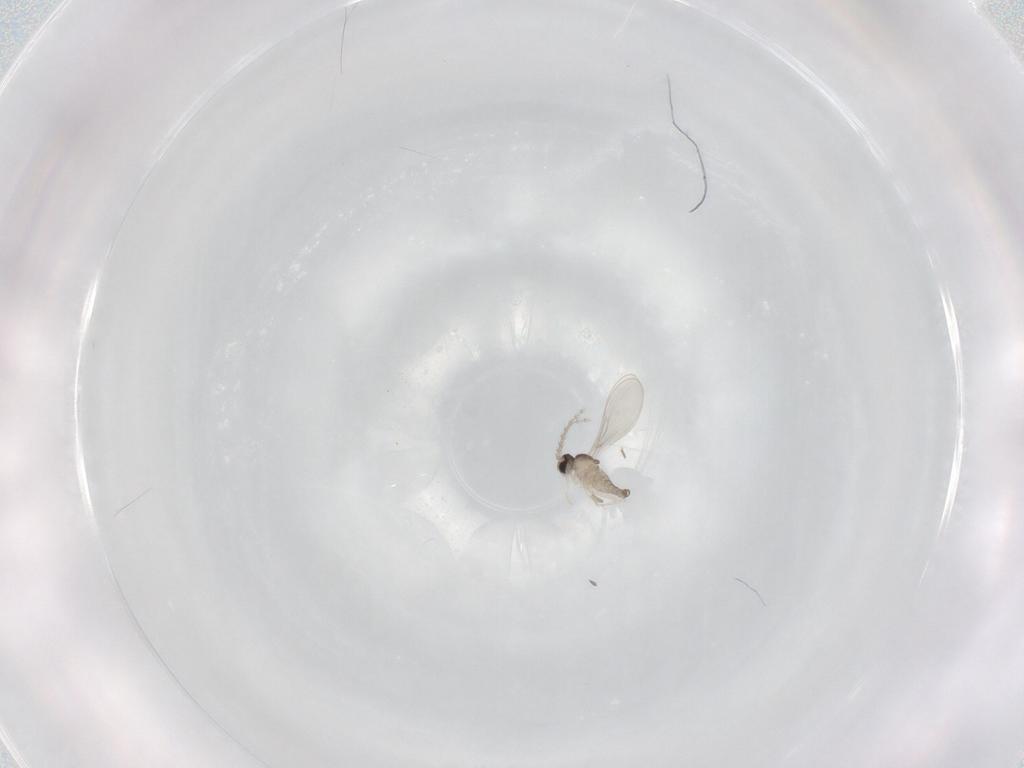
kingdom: Animalia
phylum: Arthropoda
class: Insecta
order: Diptera
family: Cecidomyiidae
